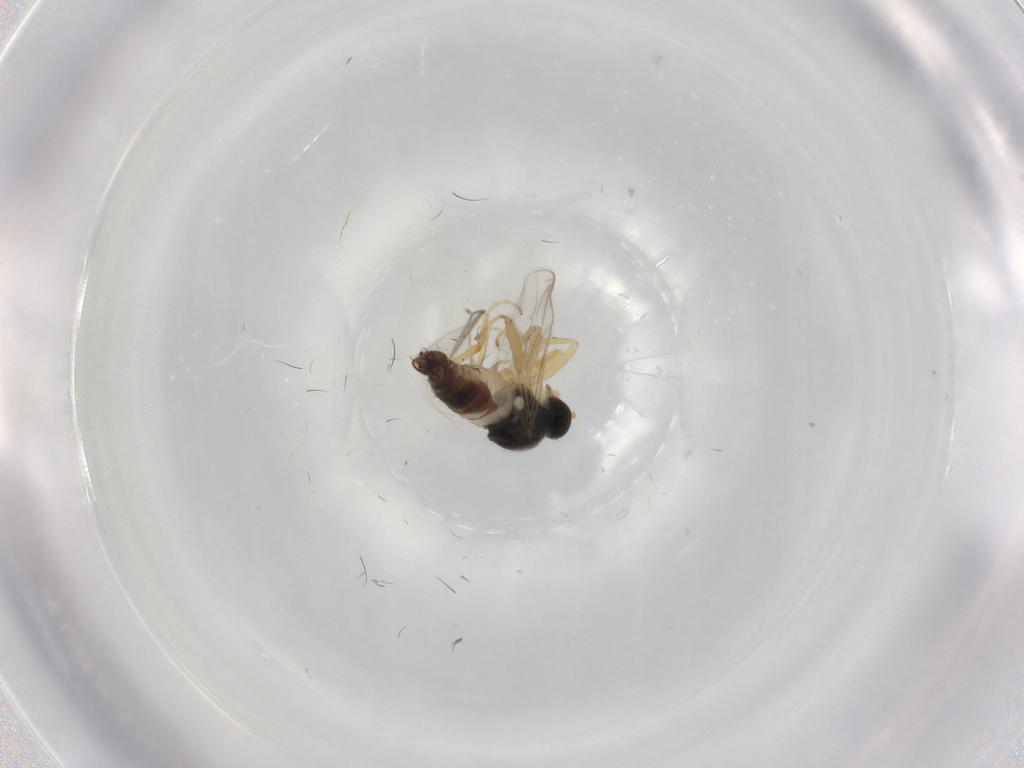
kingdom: Animalia
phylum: Arthropoda
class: Insecta
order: Diptera
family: Hybotidae
